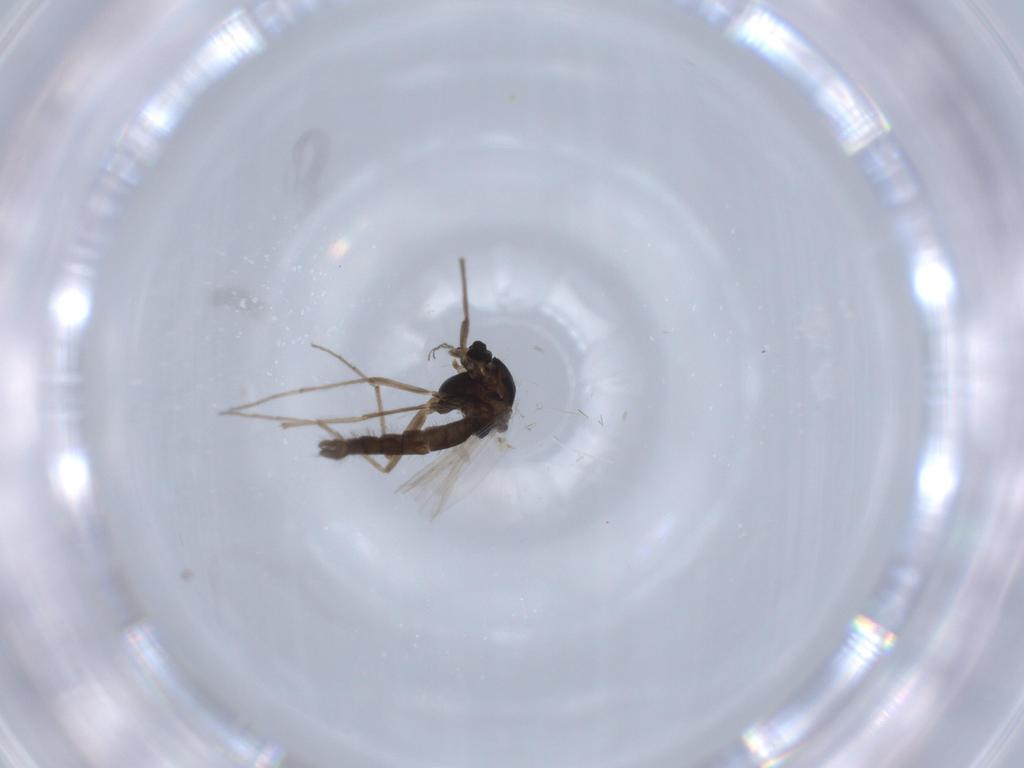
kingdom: Animalia
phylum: Arthropoda
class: Insecta
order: Diptera
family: Chironomidae
